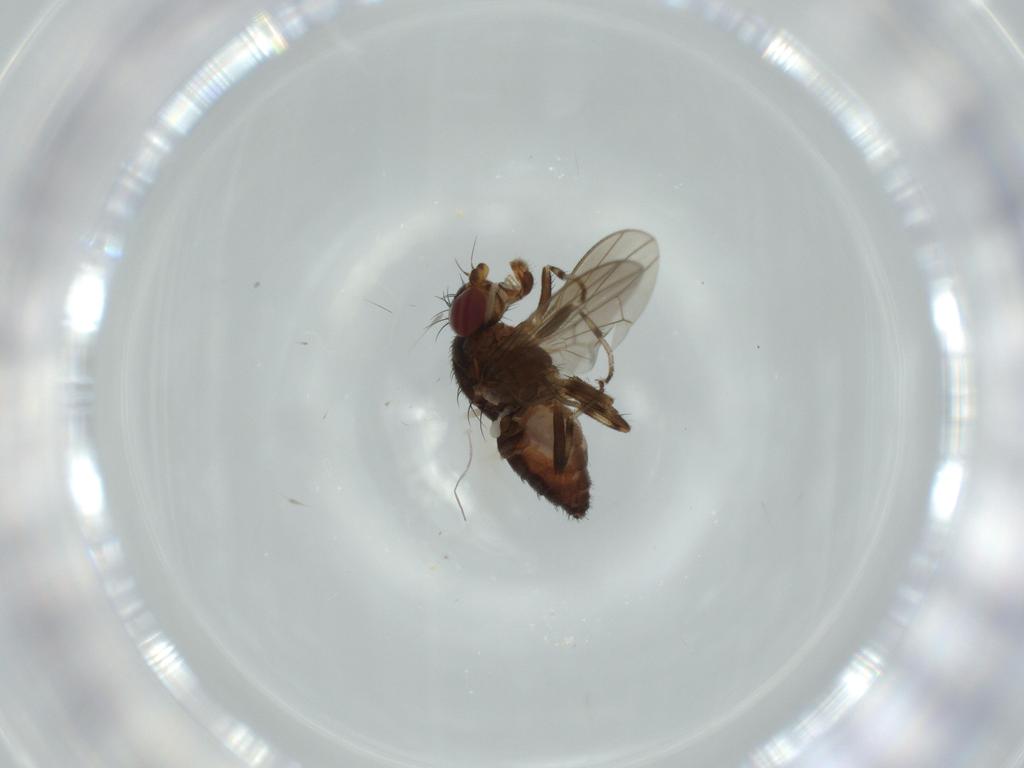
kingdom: Animalia
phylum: Arthropoda
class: Insecta
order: Diptera
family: Heleomyzidae
